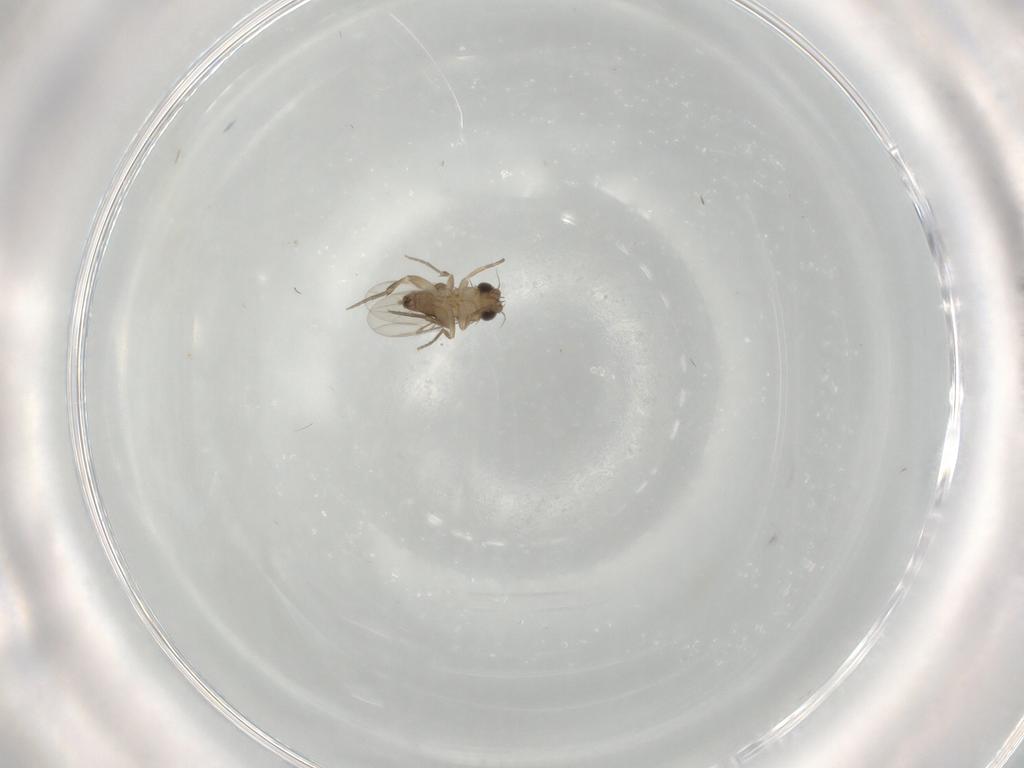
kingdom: Animalia
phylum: Arthropoda
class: Insecta
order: Diptera
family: Phoridae
